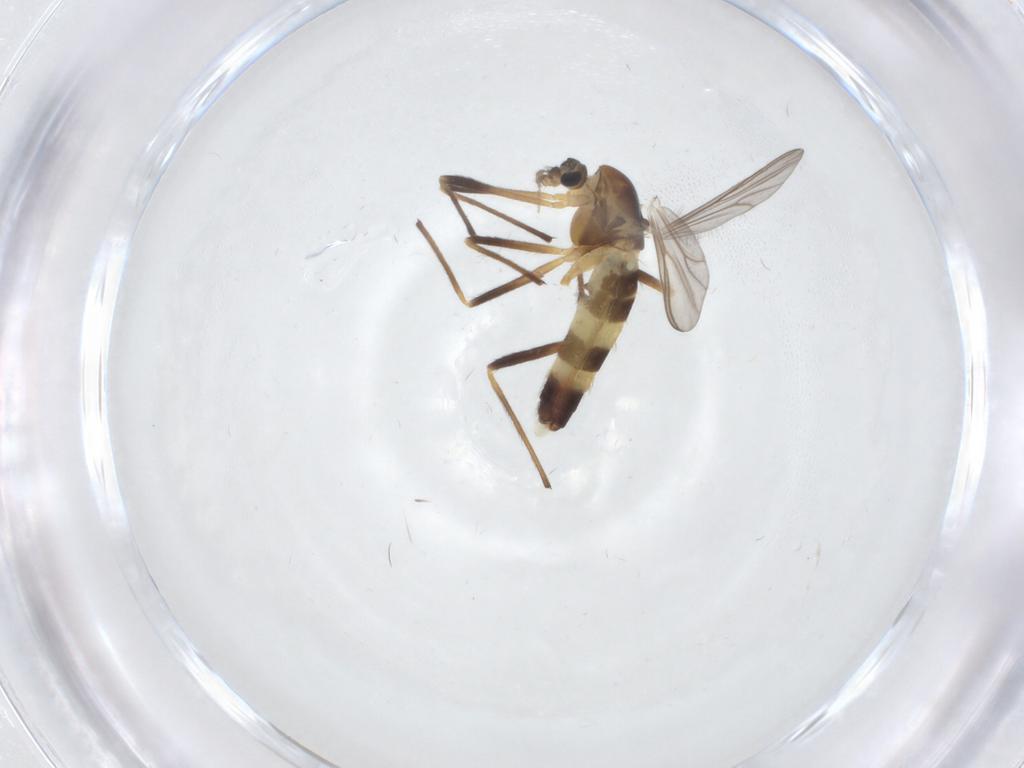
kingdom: Animalia
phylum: Arthropoda
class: Insecta
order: Diptera
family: Chironomidae
